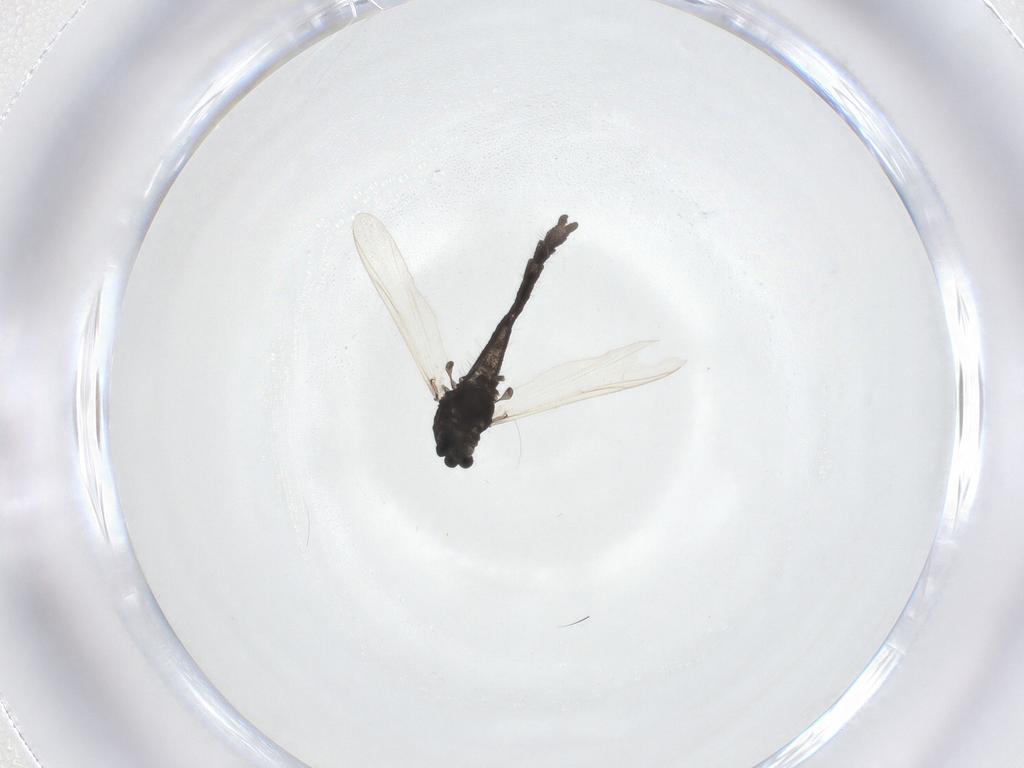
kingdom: Animalia
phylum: Arthropoda
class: Insecta
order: Diptera
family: Chironomidae
